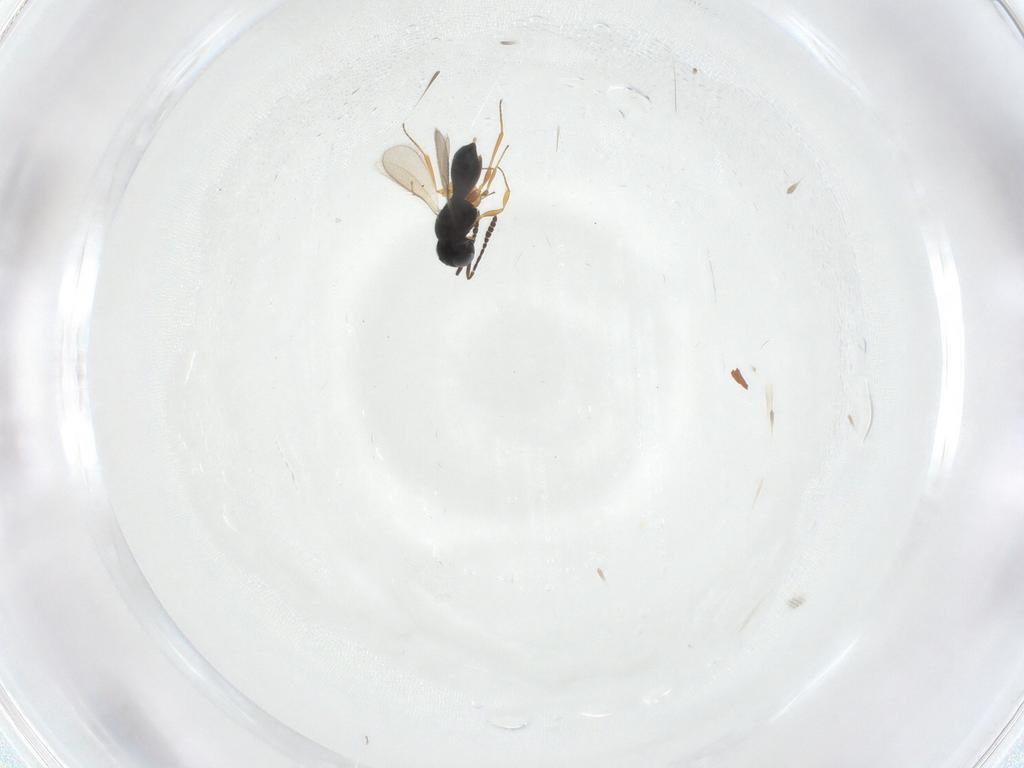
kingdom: Animalia
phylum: Arthropoda
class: Insecta
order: Hymenoptera
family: Scelionidae
